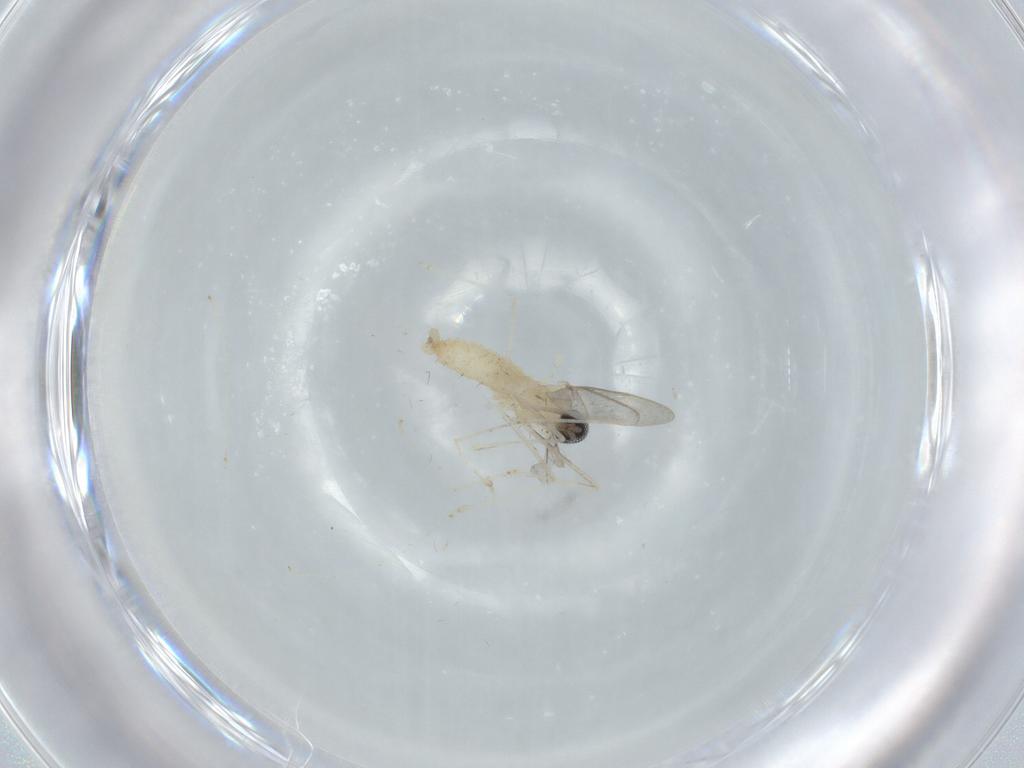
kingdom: Animalia
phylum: Arthropoda
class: Insecta
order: Diptera
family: Cecidomyiidae
